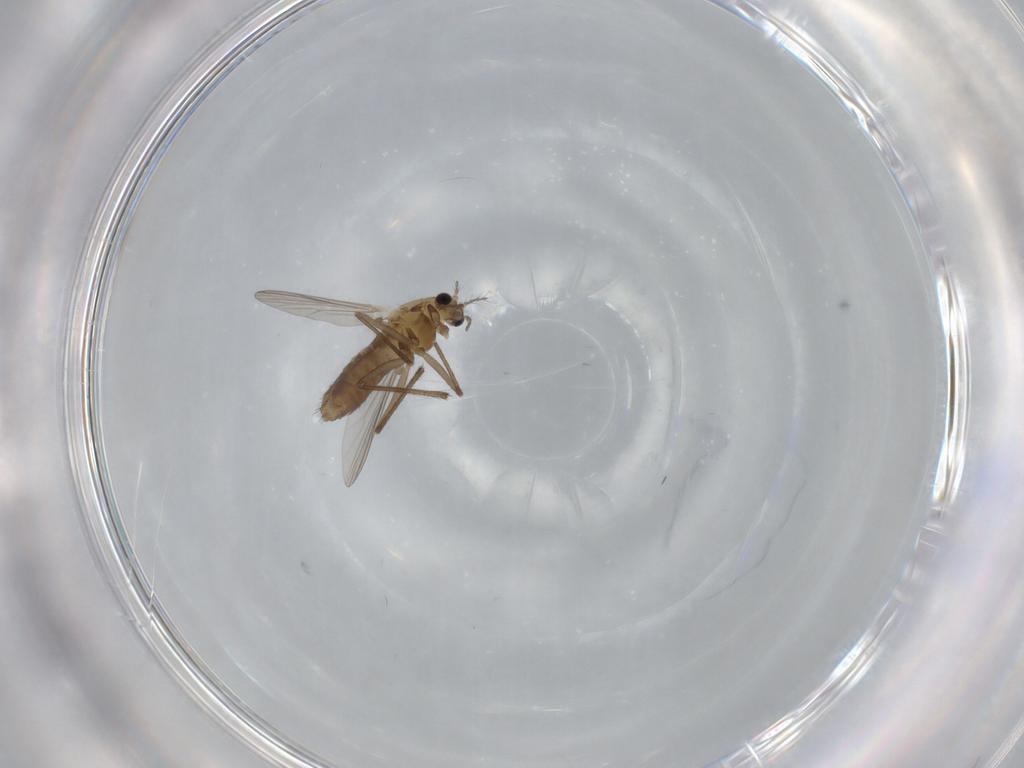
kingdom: Animalia
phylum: Arthropoda
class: Insecta
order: Diptera
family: Chironomidae
